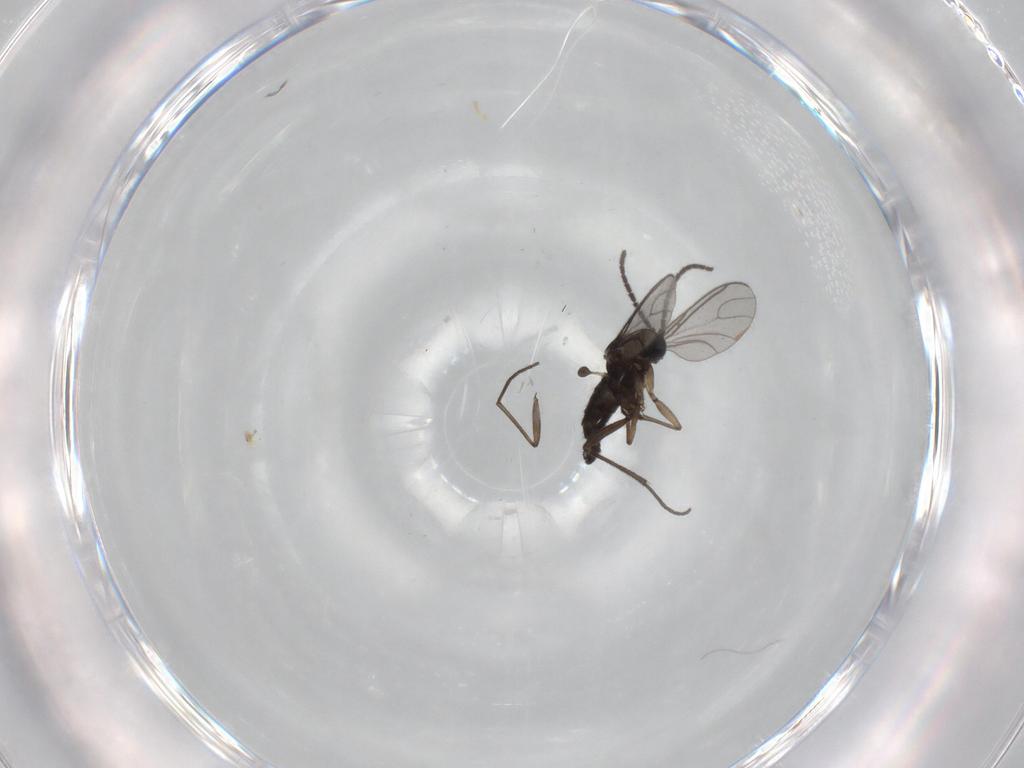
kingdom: Animalia
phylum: Arthropoda
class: Insecta
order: Diptera
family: Sciaridae
